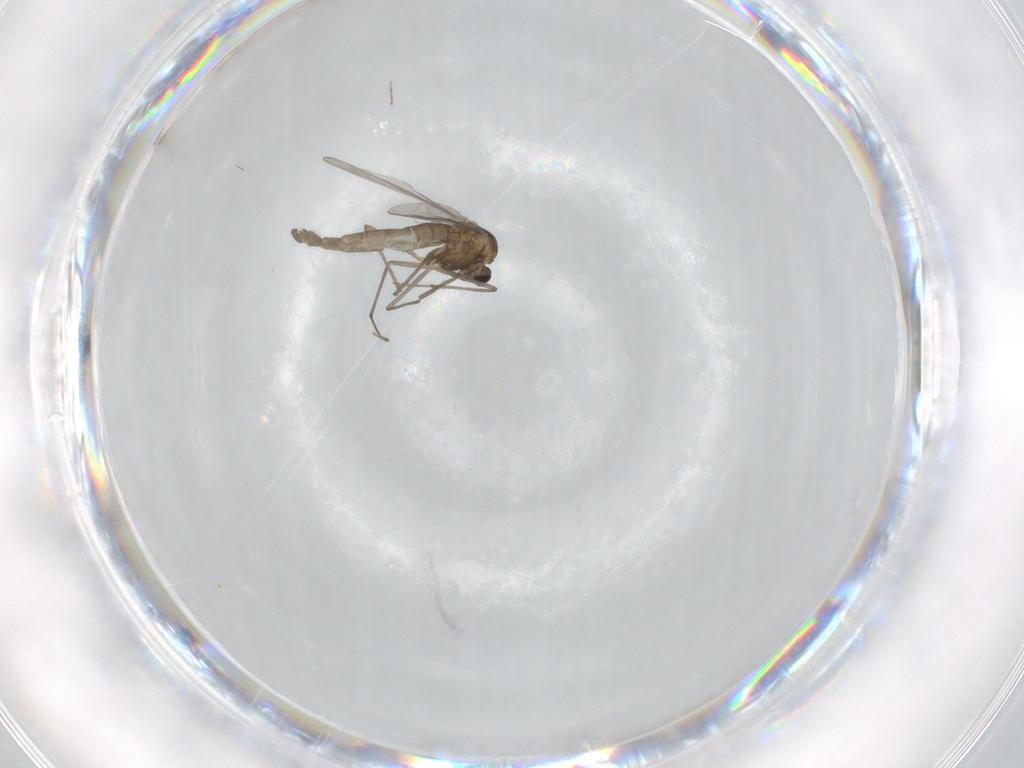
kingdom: Animalia
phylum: Arthropoda
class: Insecta
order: Diptera
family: Chironomidae
